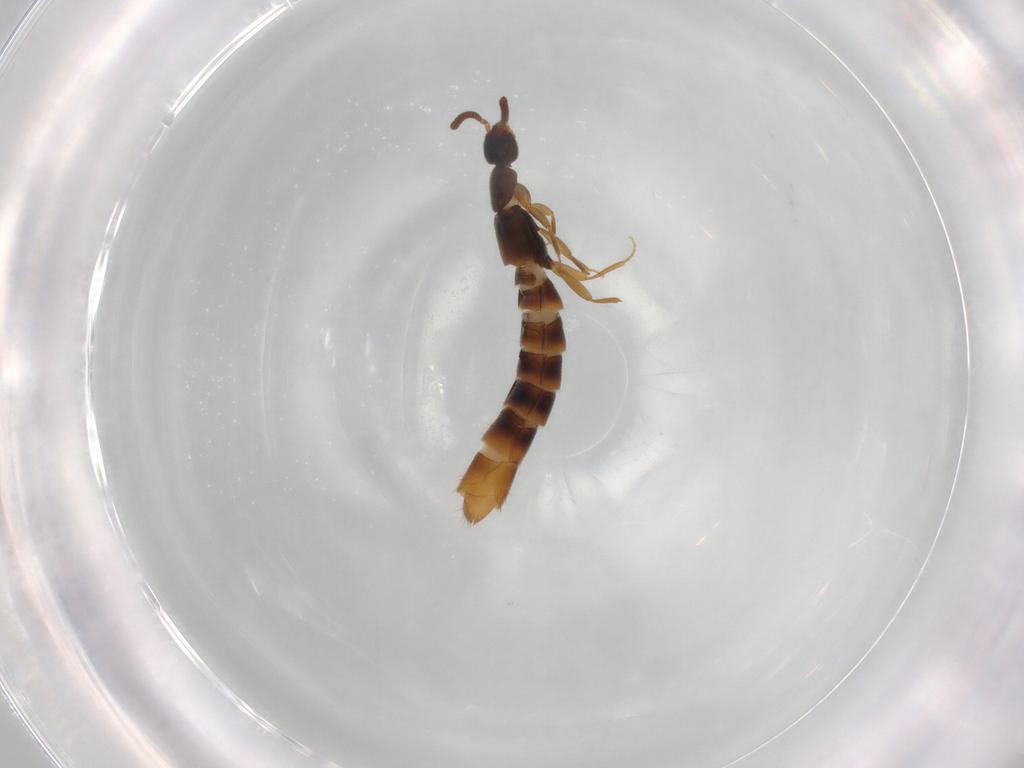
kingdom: Animalia
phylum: Arthropoda
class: Insecta
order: Coleoptera
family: Staphylinidae
